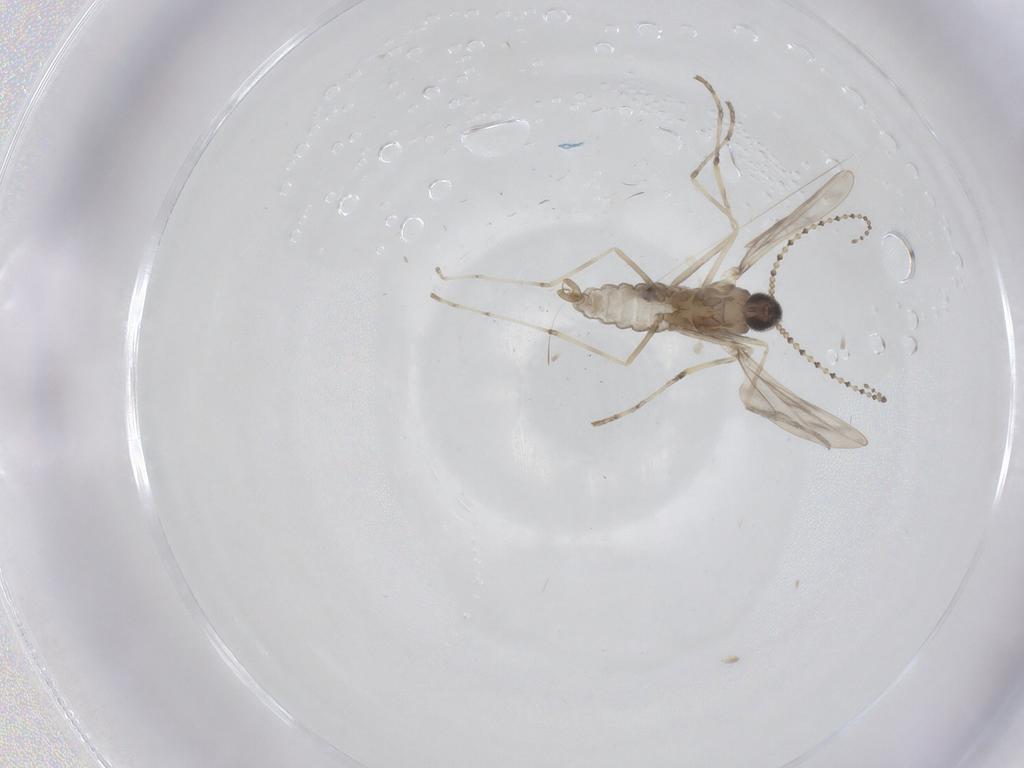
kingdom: Animalia
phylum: Arthropoda
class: Insecta
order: Diptera
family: Cecidomyiidae
